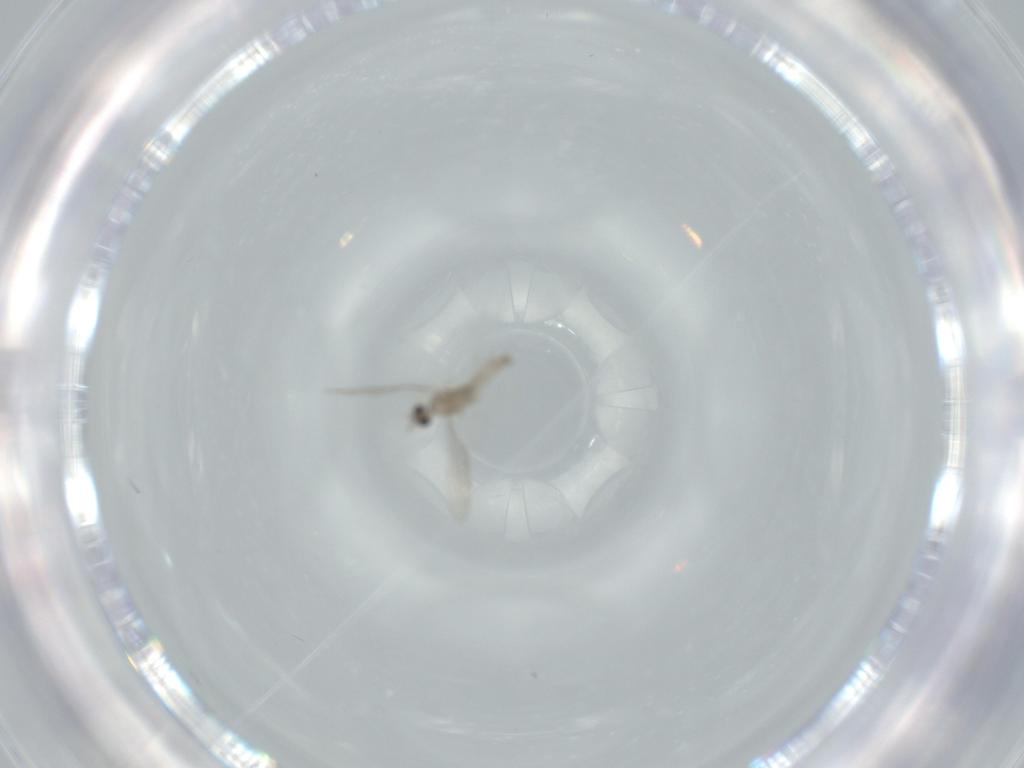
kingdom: Animalia
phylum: Arthropoda
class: Insecta
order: Diptera
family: Cecidomyiidae
